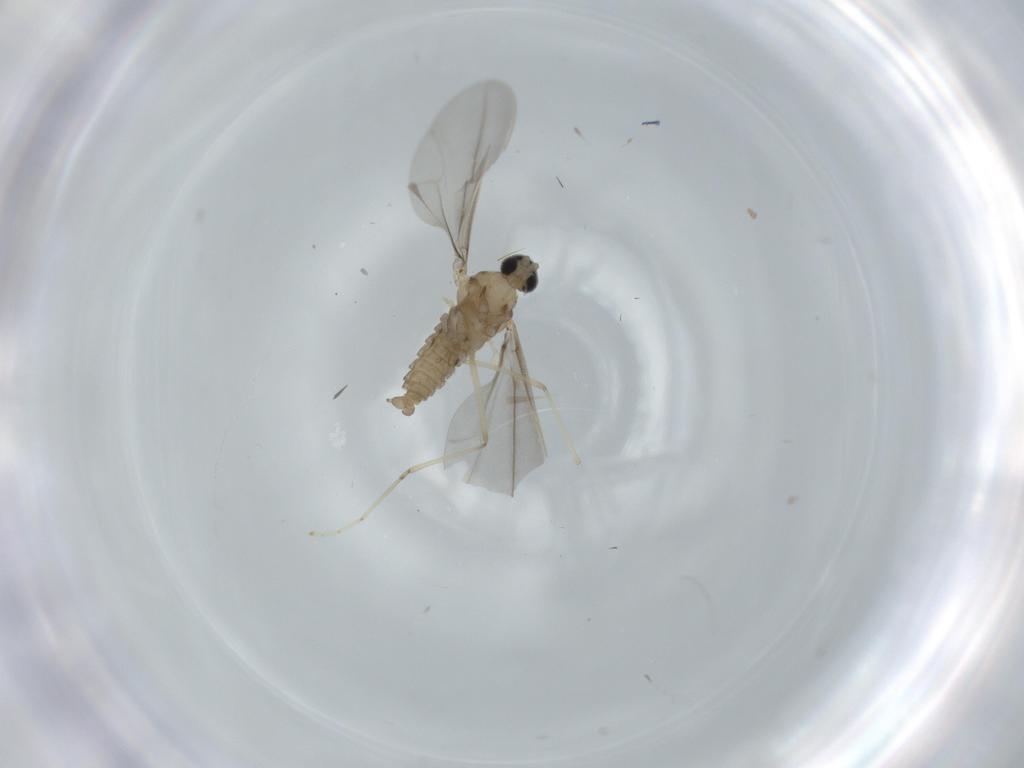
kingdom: Animalia
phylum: Arthropoda
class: Insecta
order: Diptera
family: Cecidomyiidae
